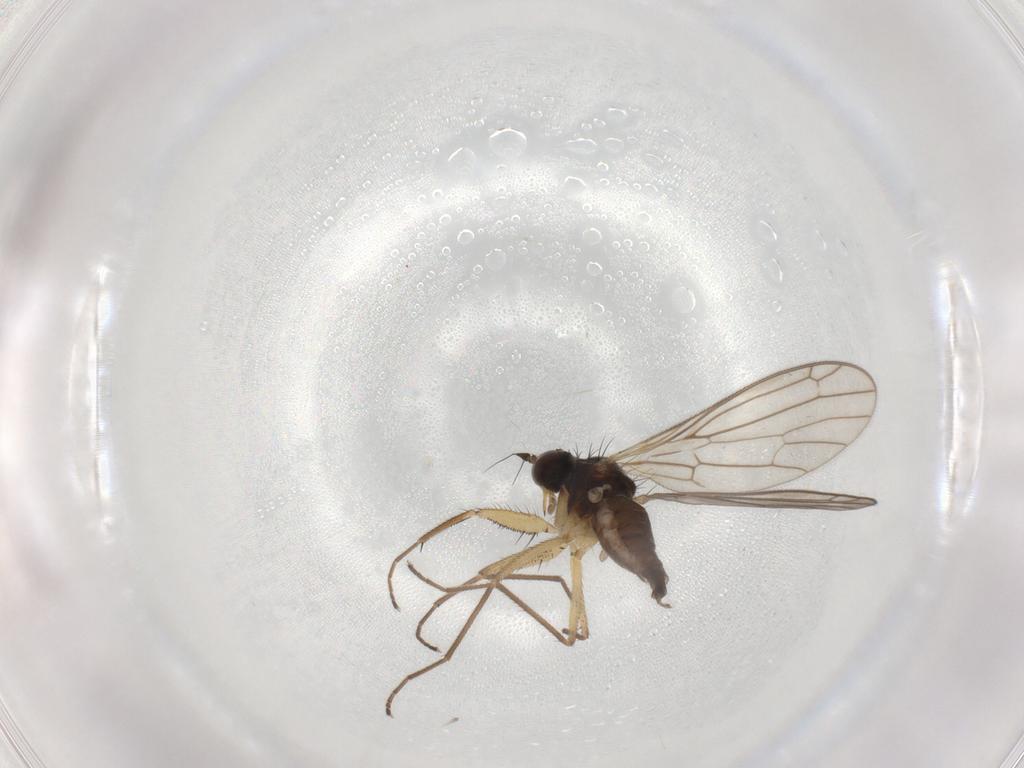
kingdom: Animalia
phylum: Arthropoda
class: Insecta
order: Diptera
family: Empididae
